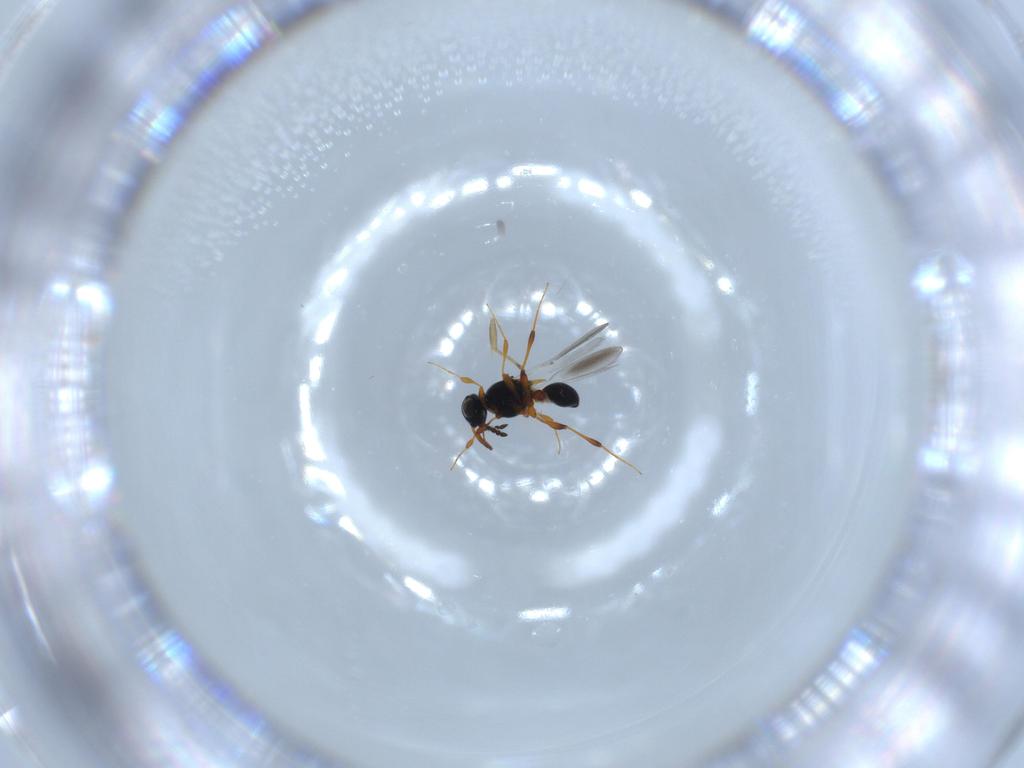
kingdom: Animalia
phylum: Arthropoda
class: Insecta
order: Hymenoptera
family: Platygastridae
